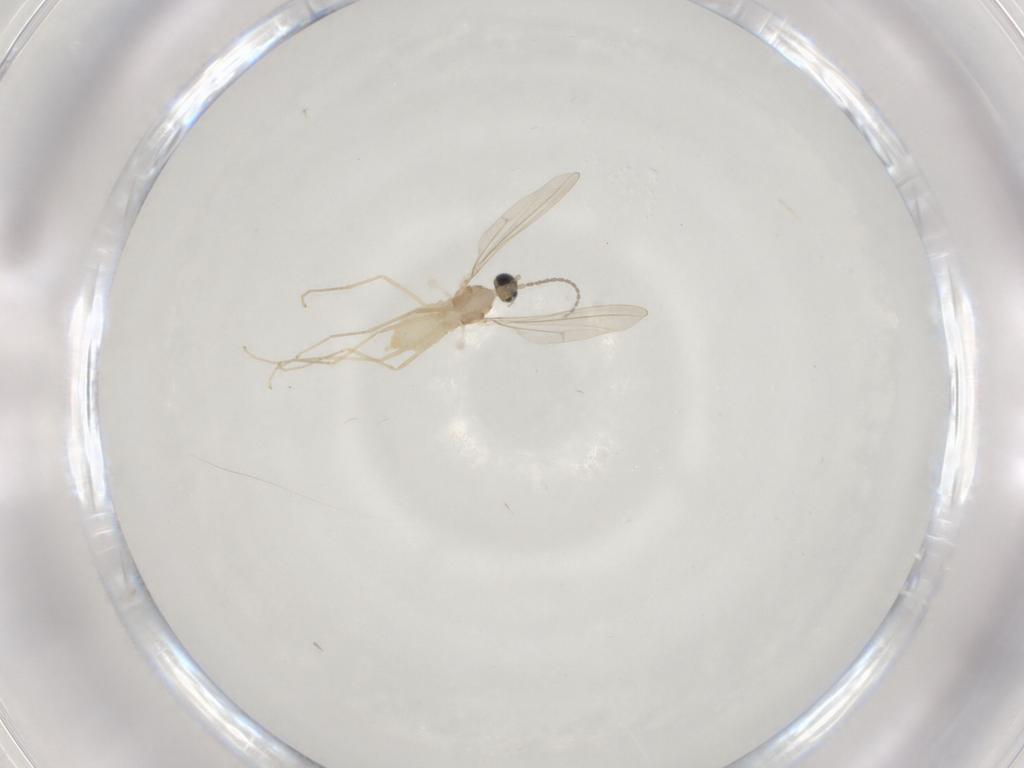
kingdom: Animalia
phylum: Arthropoda
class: Insecta
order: Diptera
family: Cecidomyiidae
